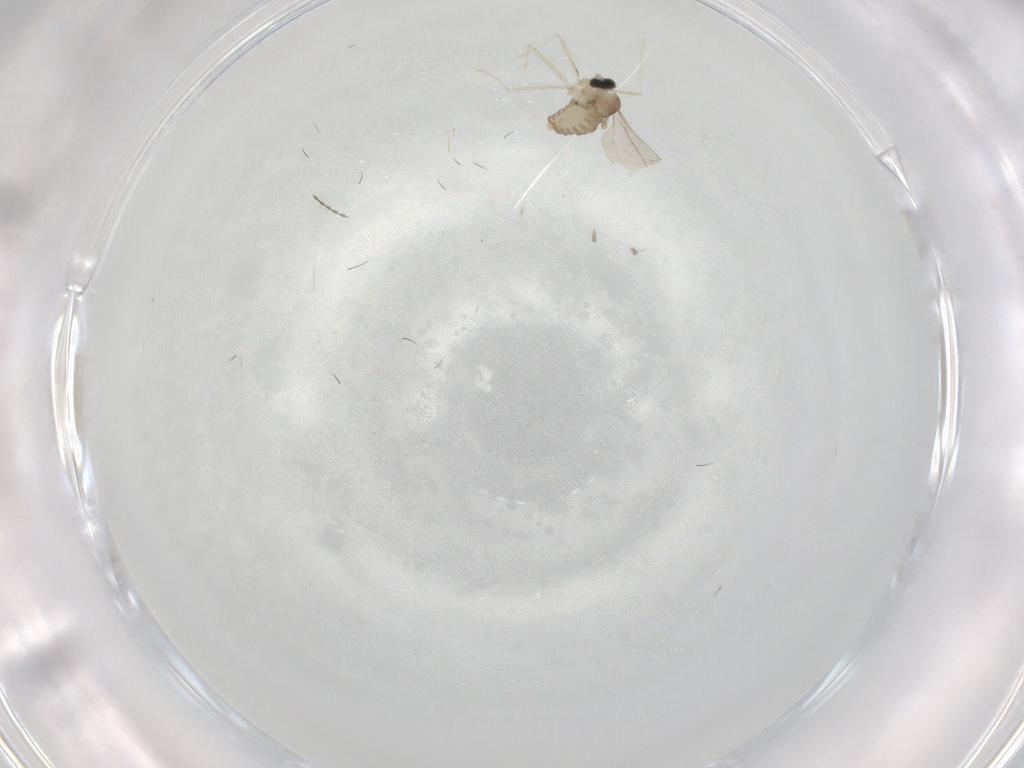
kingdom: Animalia
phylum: Arthropoda
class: Insecta
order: Diptera
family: Cecidomyiidae
